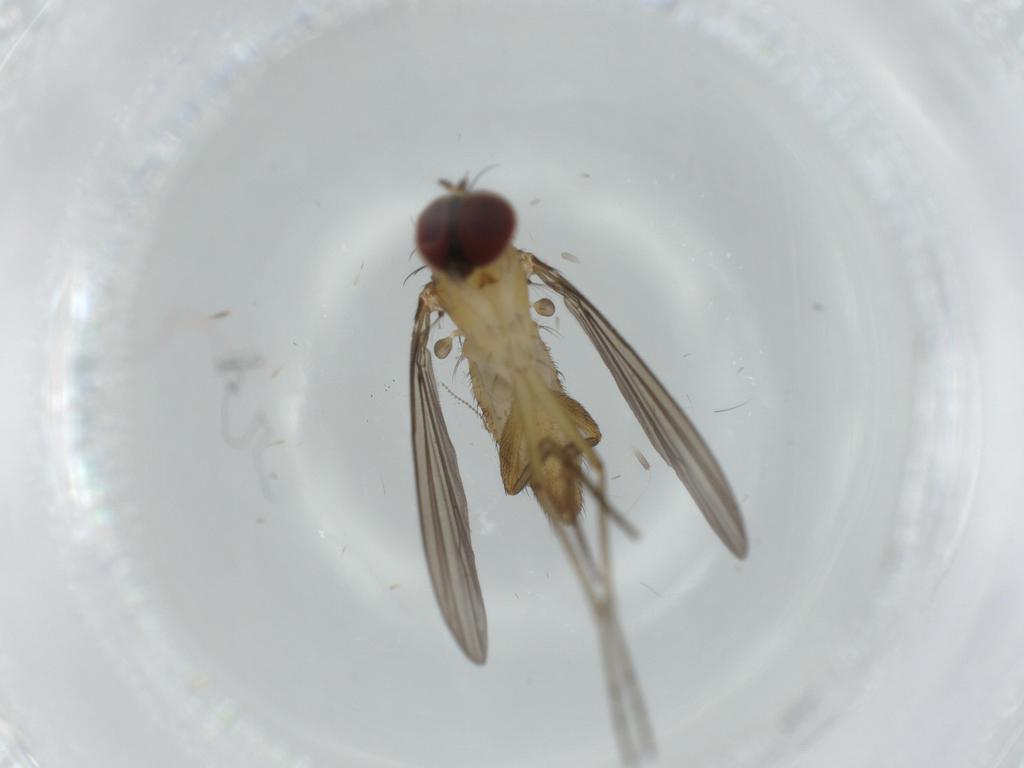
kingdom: Animalia
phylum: Arthropoda
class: Insecta
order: Diptera
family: Dolichopodidae
